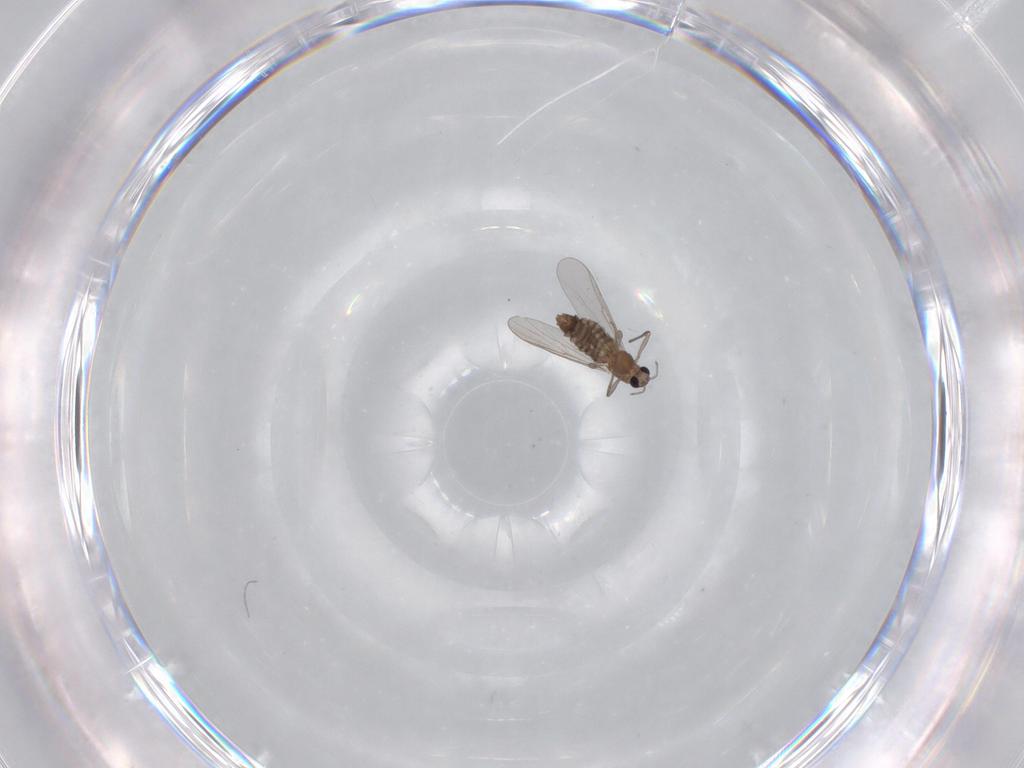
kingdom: Animalia
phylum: Arthropoda
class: Insecta
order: Diptera
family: Chironomidae
